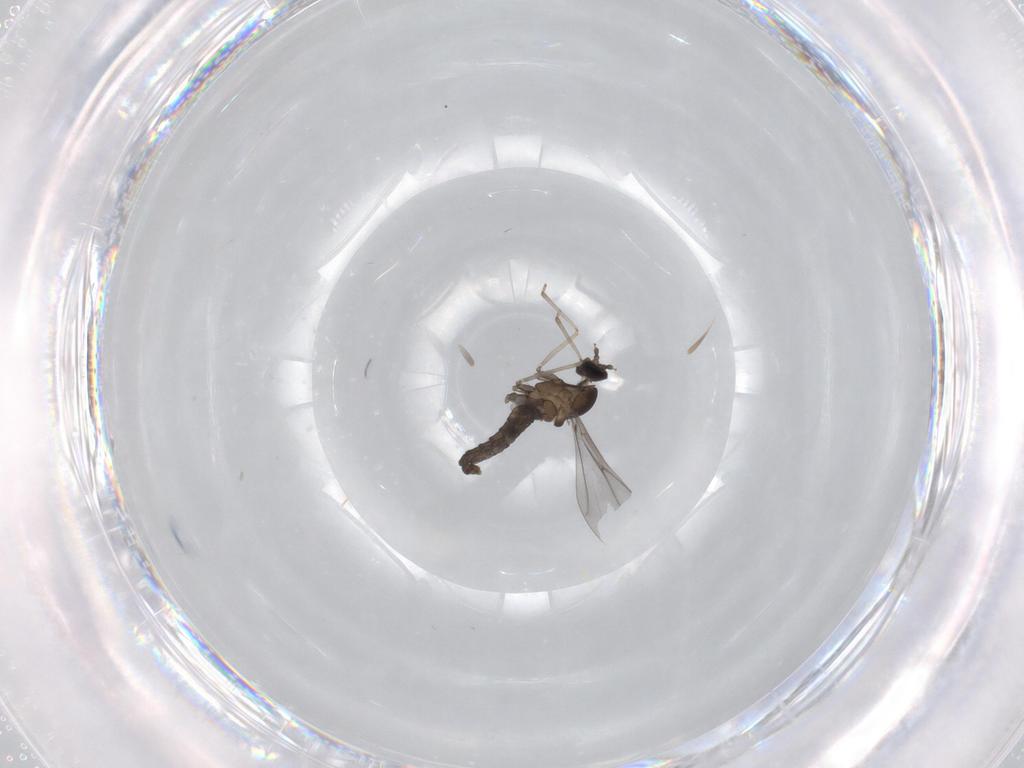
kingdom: Animalia
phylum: Arthropoda
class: Insecta
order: Diptera
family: Cecidomyiidae
